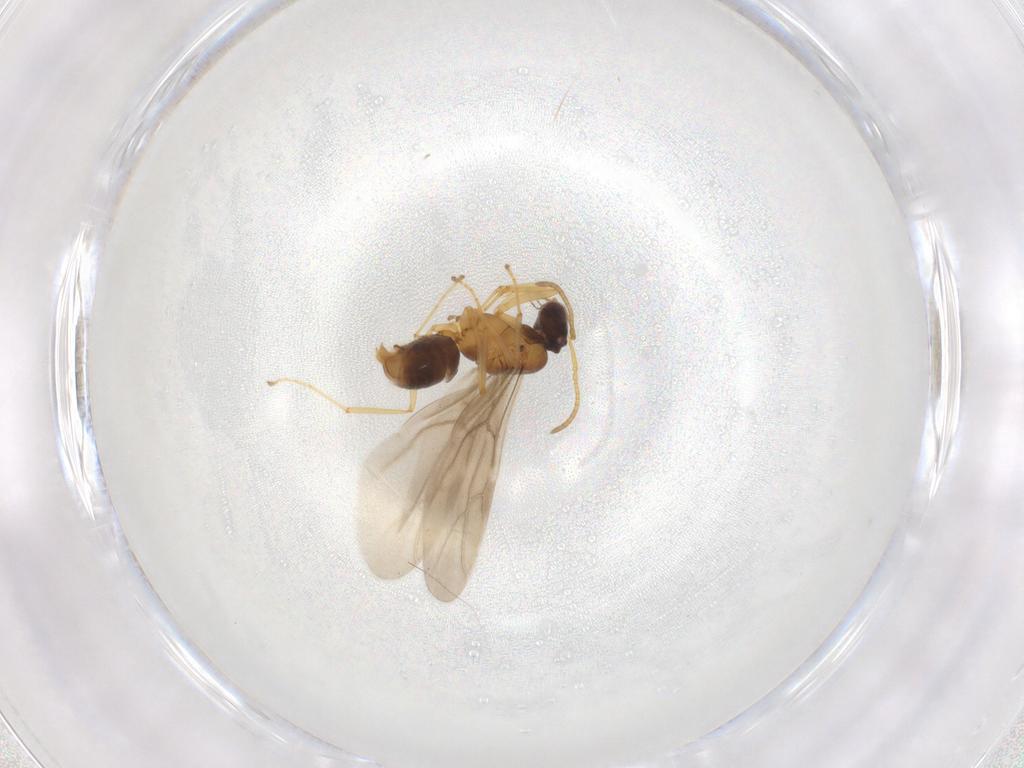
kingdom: Animalia
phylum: Arthropoda
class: Insecta
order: Hymenoptera
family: Formicidae
